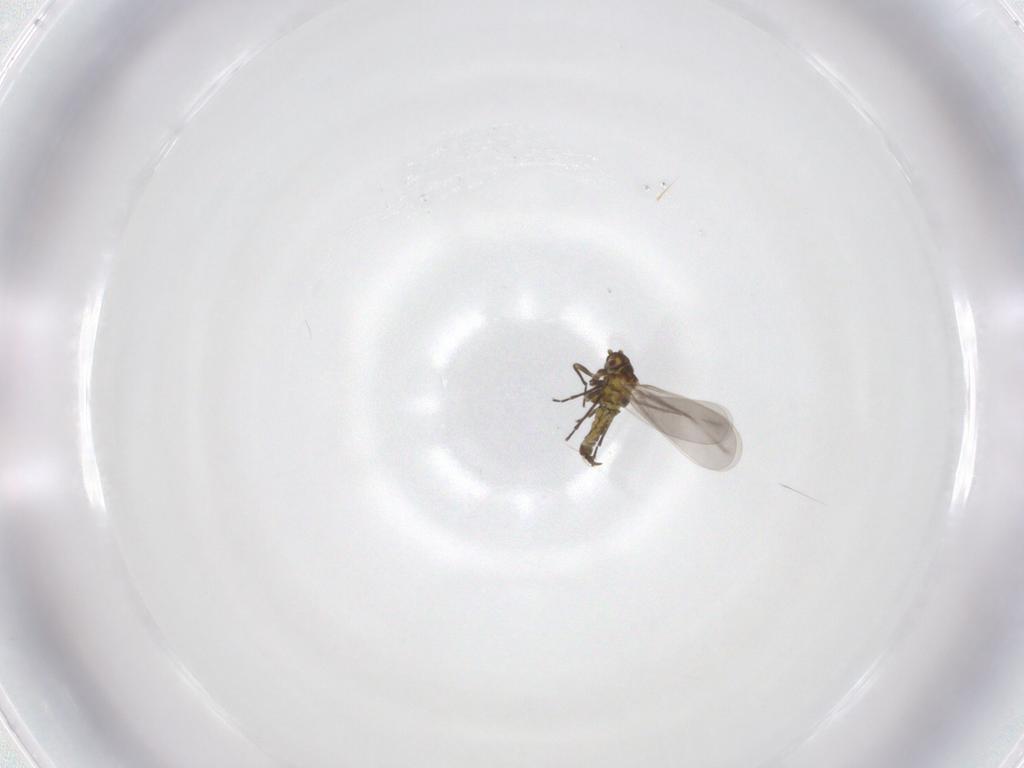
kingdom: Animalia
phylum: Arthropoda
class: Insecta
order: Hemiptera
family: Aleyrodidae
